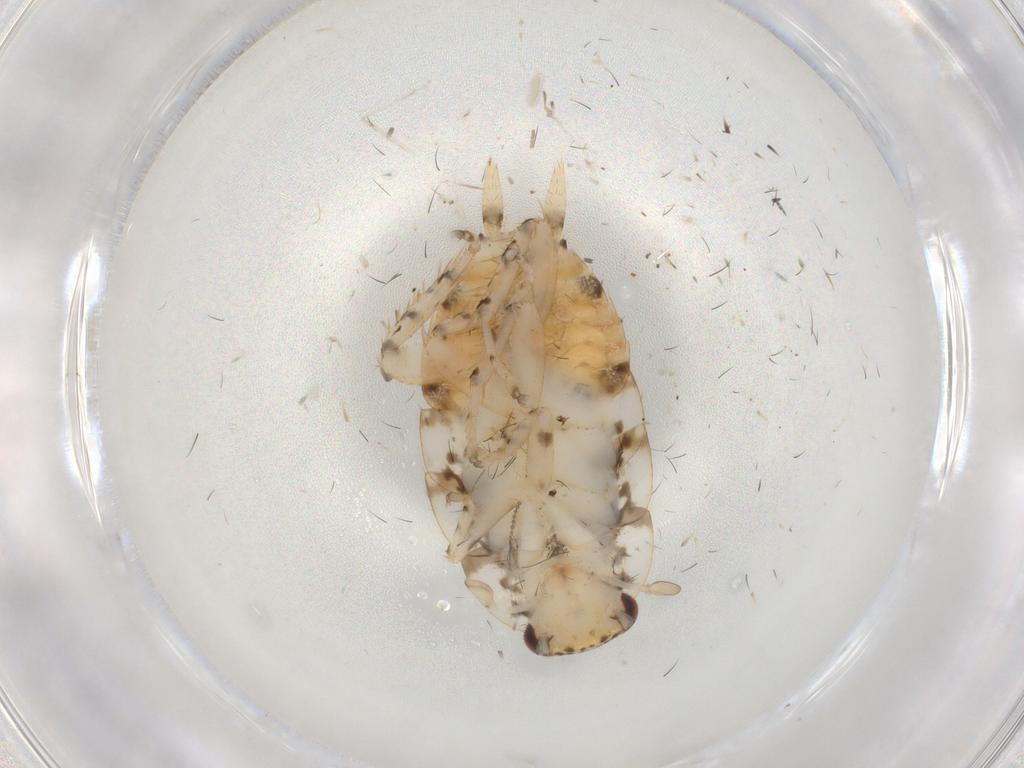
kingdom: Animalia
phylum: Arthropoda
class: Insecta
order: Blattodea
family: Ectobiidae
